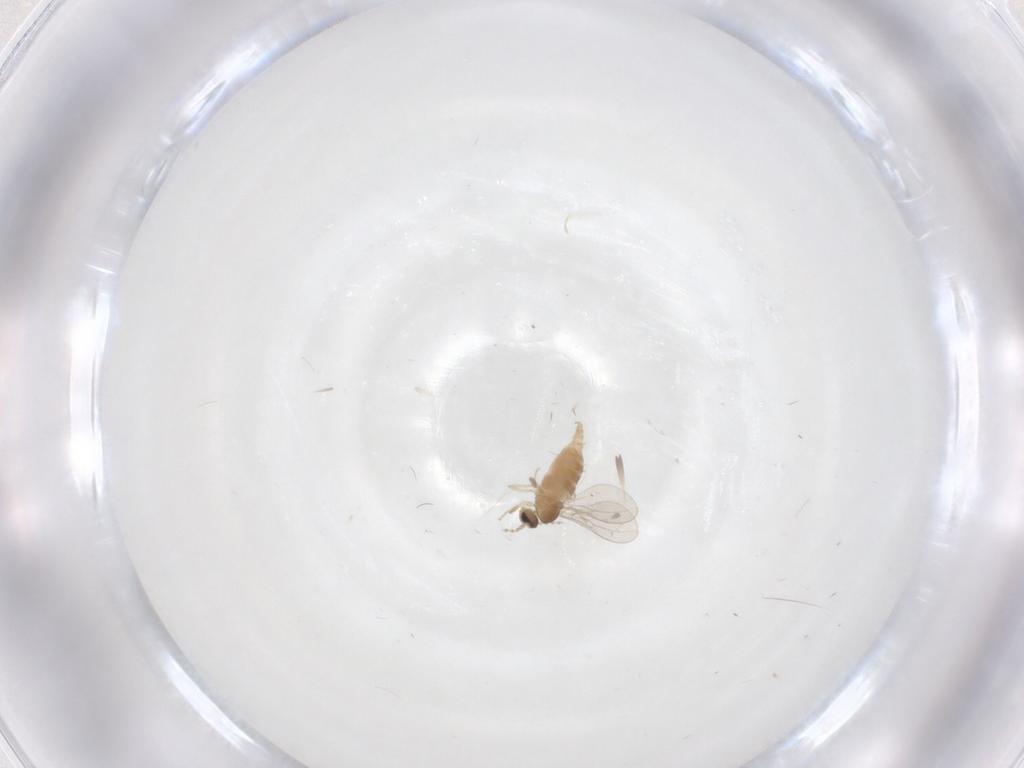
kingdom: Animalia
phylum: Arthropoda
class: Insecta
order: Diptera
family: Cecidomyiidae
